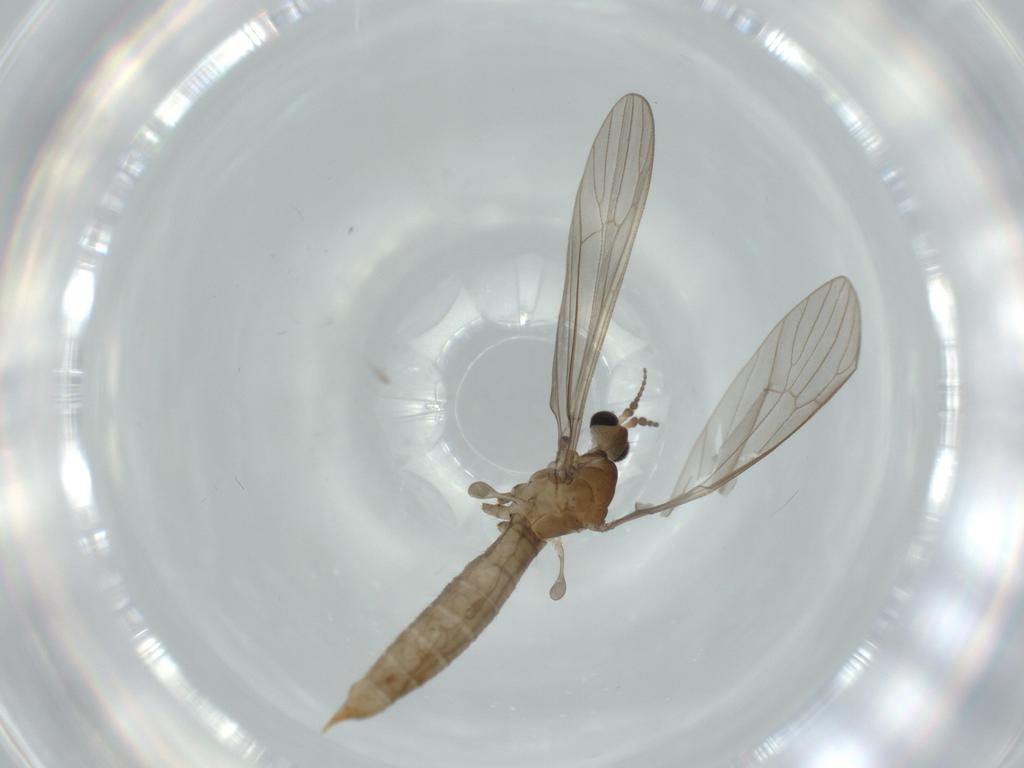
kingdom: Animalia
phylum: Arthropoda
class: Insecta
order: Diptera
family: Limoniidae
